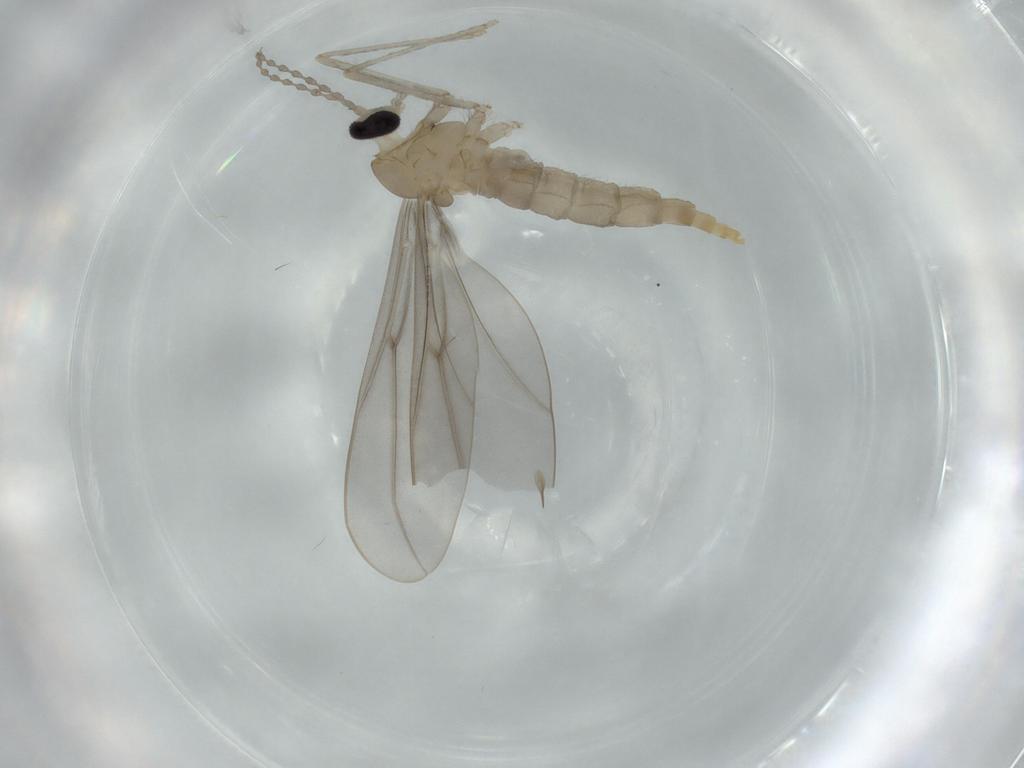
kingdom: Animalia
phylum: Arthropoda
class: Insecta
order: Diptera
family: Cecidomyiidae
